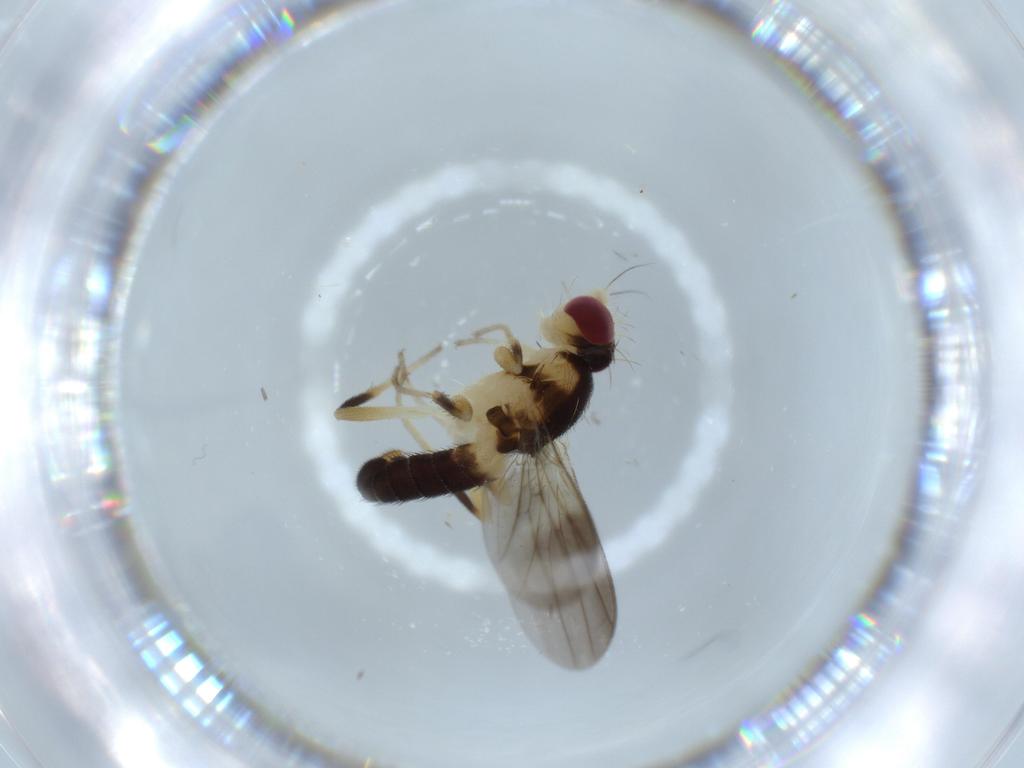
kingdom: Animalia
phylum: Arthropoda
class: Insecta
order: Diptera
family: Clusiidae
